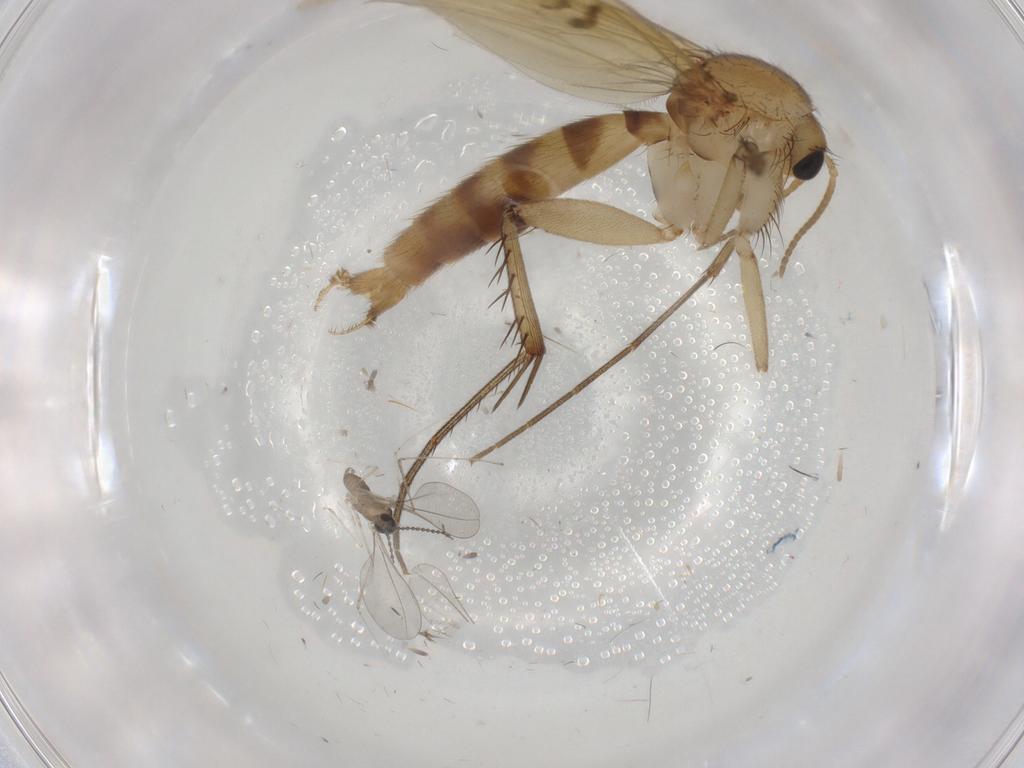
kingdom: Animalia
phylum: Arthropoda
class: Insecta
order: Diptera
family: Mycetophilidae
